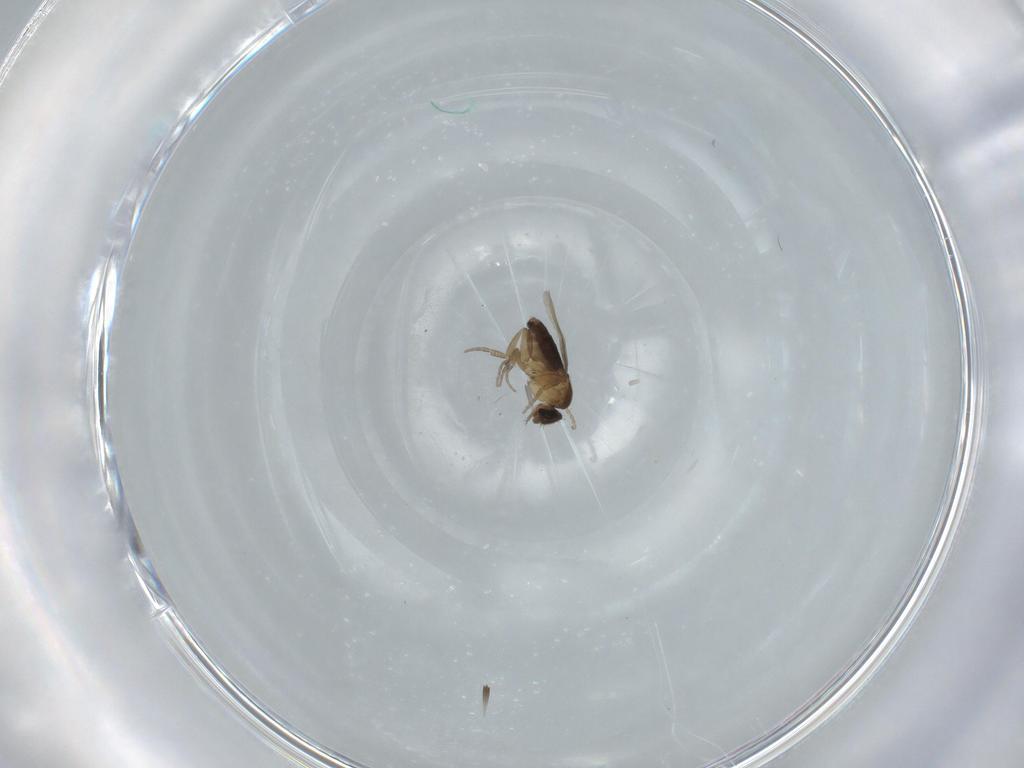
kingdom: Animalia
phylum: Arthropoda
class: Insecta
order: Diptera
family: Phoridae
